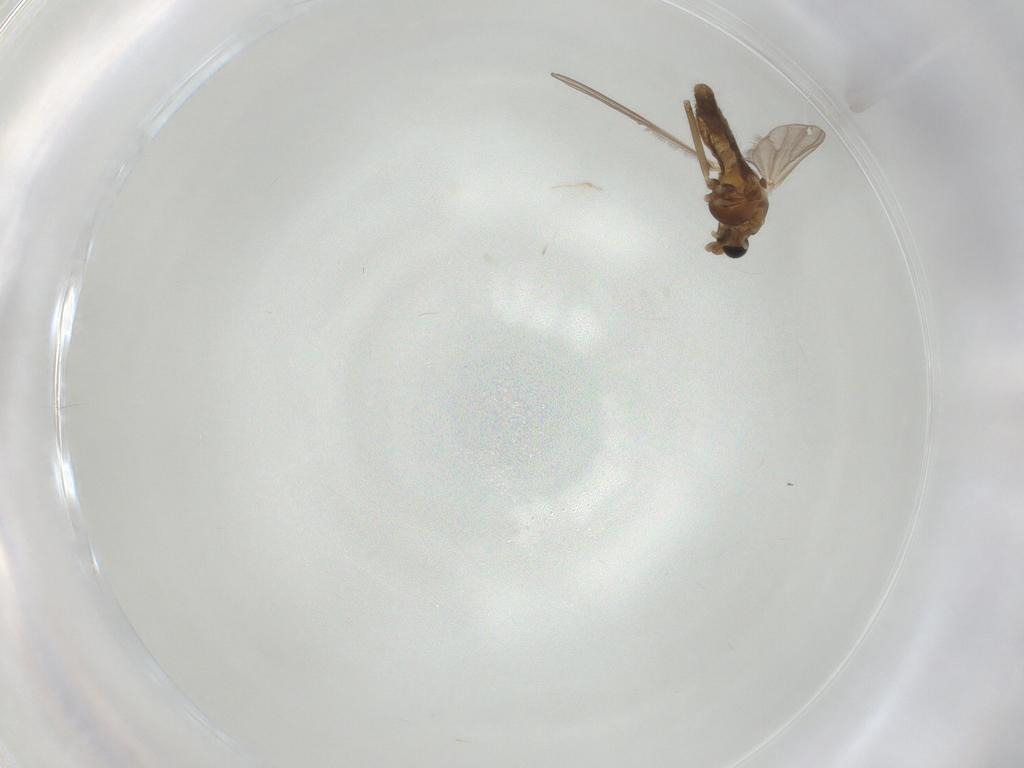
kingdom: Animalia
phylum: Arthropoda
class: Insecta
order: Diptera
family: Chironomidae
